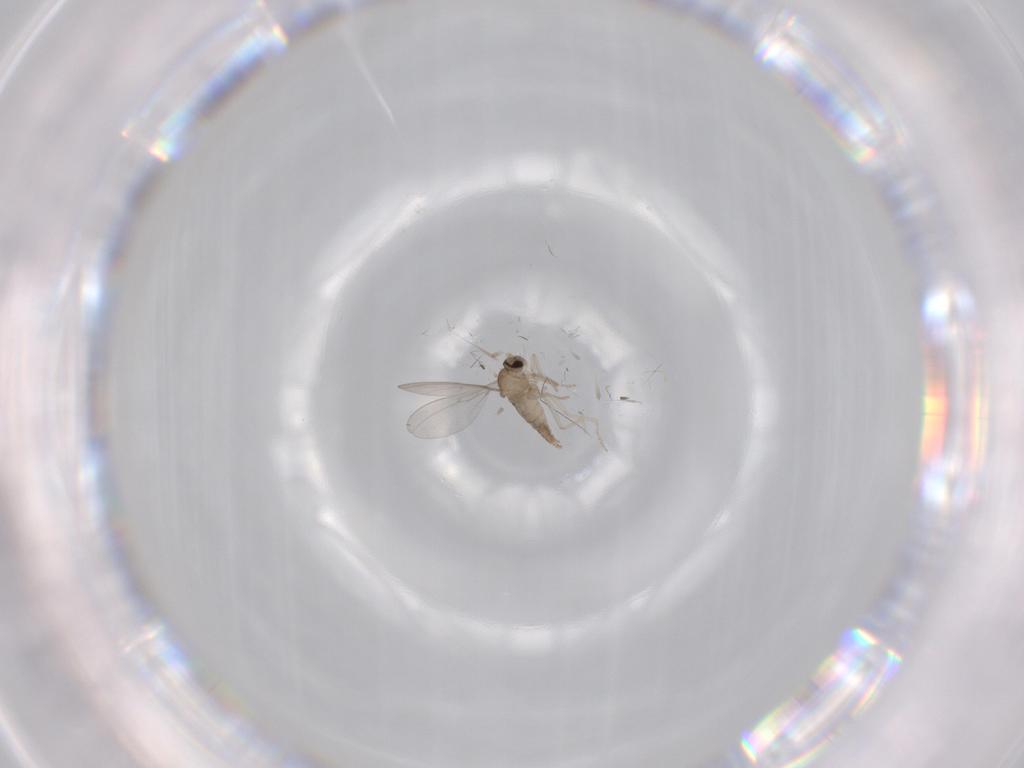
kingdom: Animalia
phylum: Arthropoda
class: Insecta
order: Diptera
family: Cecidomyiidae
